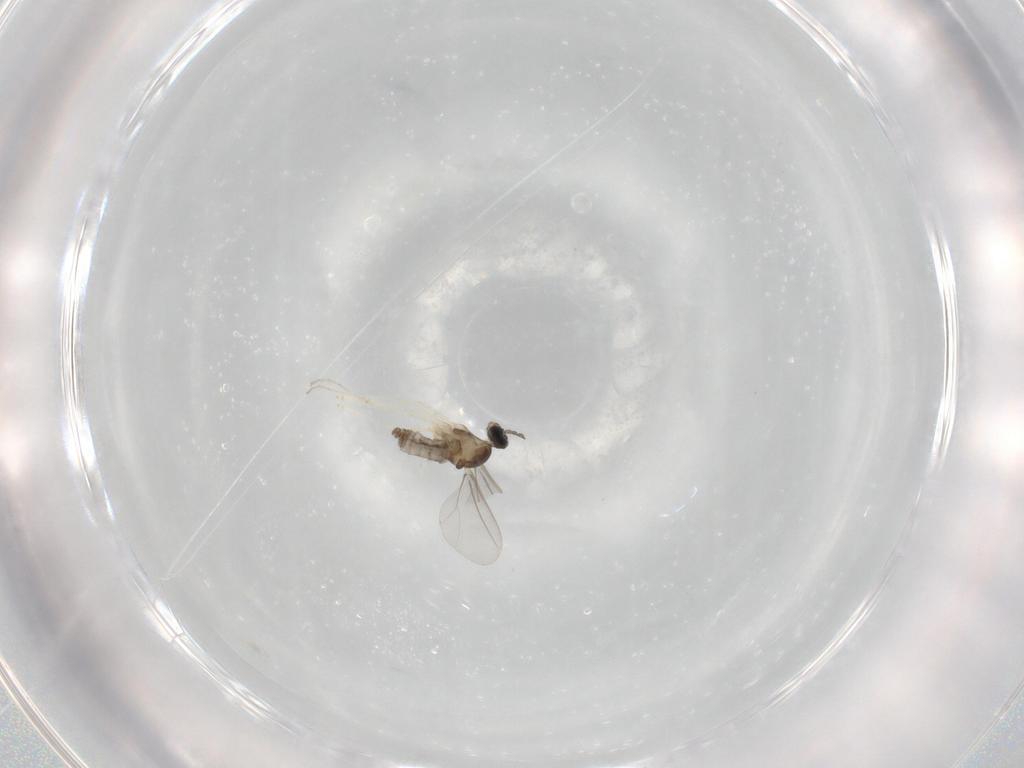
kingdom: Animalia
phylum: Arthropoda
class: Insecta
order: Diptera
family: Cecidomyiidae
